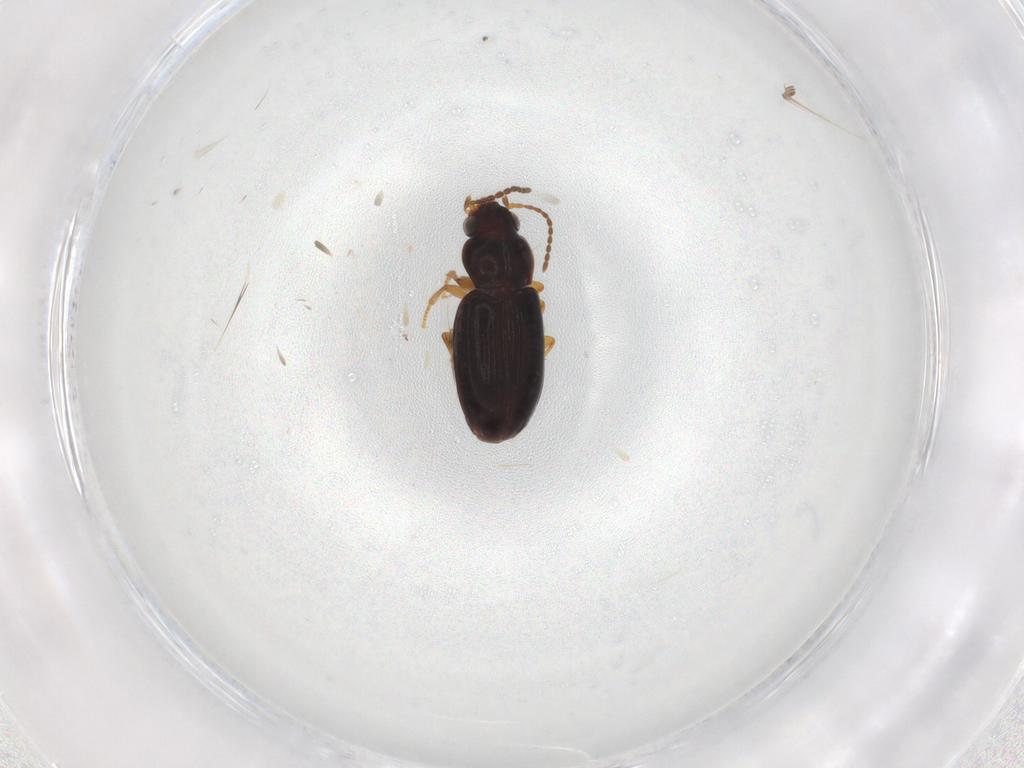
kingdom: Animalia
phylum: Arthropoda
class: Insecta
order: Coleoptera
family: Carabidae
